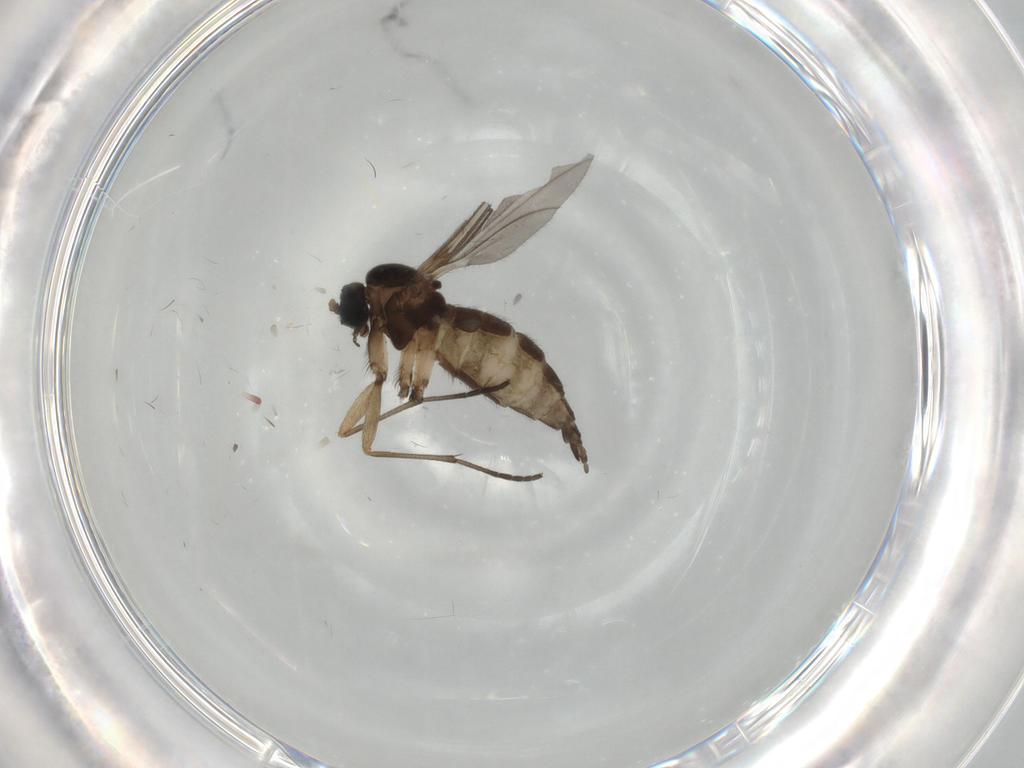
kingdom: Animalia
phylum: Arthropoda
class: Insecta
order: Diptera
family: Sciaridae
